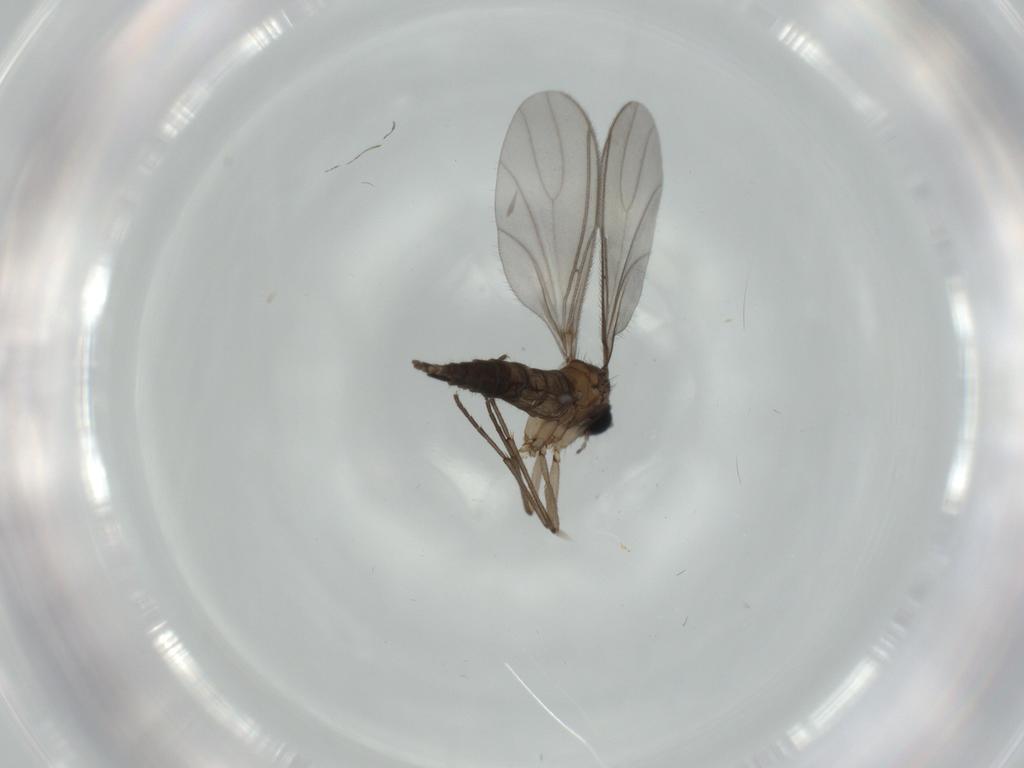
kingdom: Animalia
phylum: Arthropoda
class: Insecta
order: Diptera
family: Sciaridae
